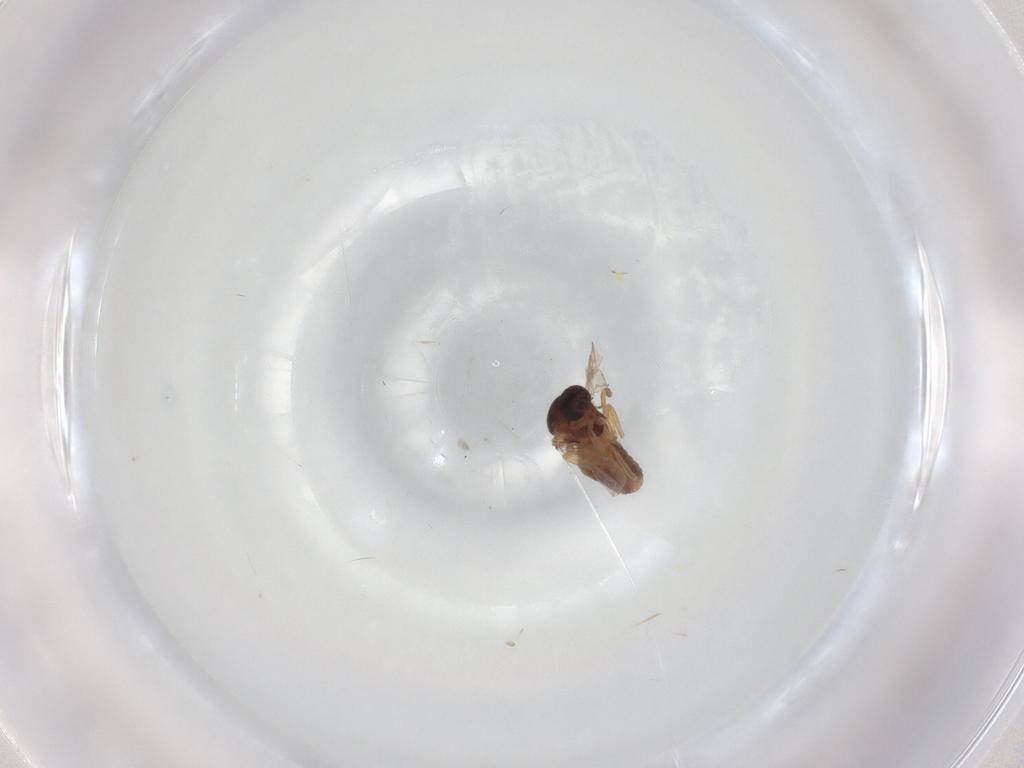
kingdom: Animalia
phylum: Arthropoda
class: Insecta
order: Diptera
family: Ceratopogonidae
